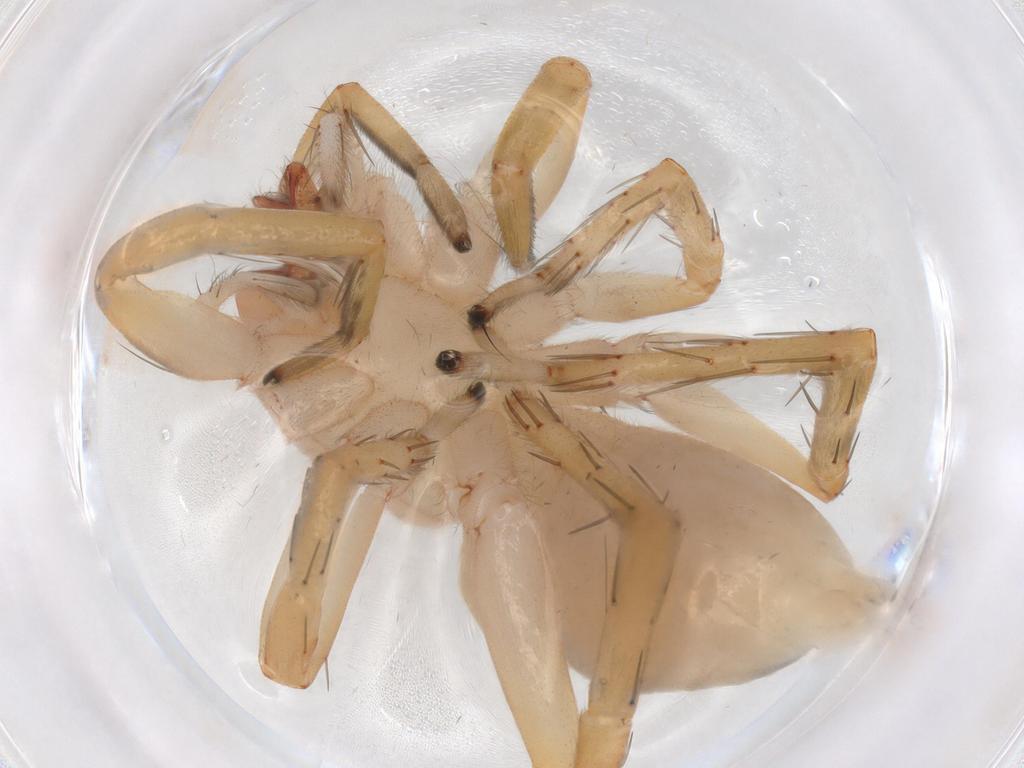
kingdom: Animalia
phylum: Arthropoda
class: Arachnida
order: Araneae
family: Clubionidae
